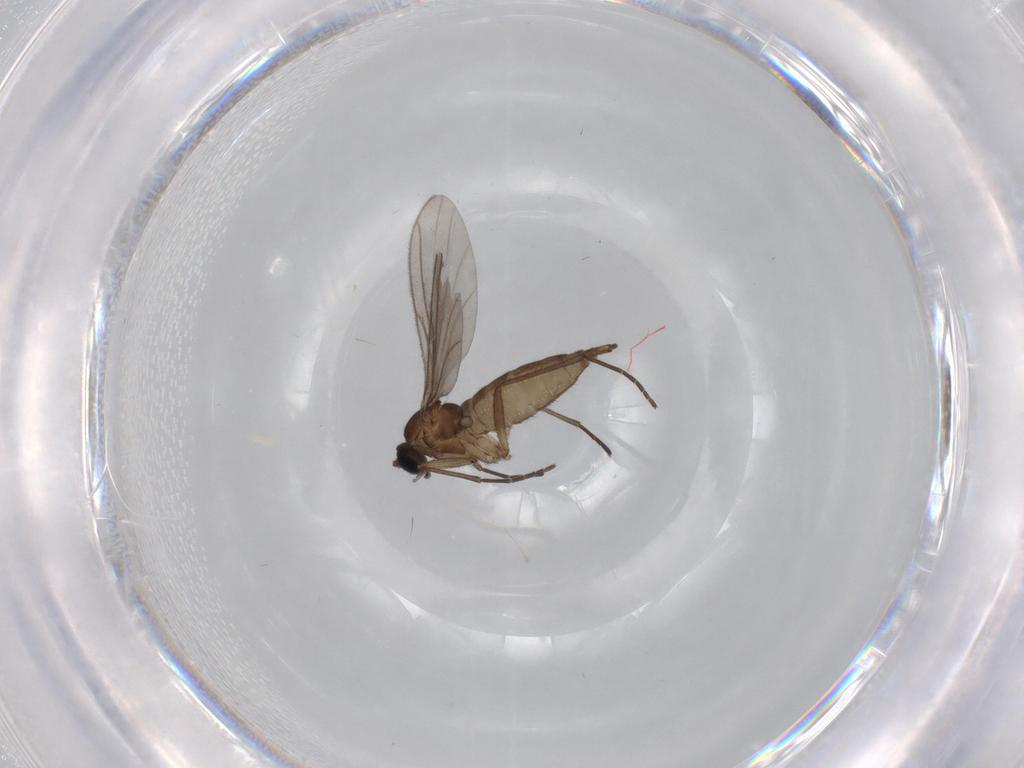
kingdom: Animalia
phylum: Arthropoda
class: Insecta
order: Diptera
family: Sciaridae
